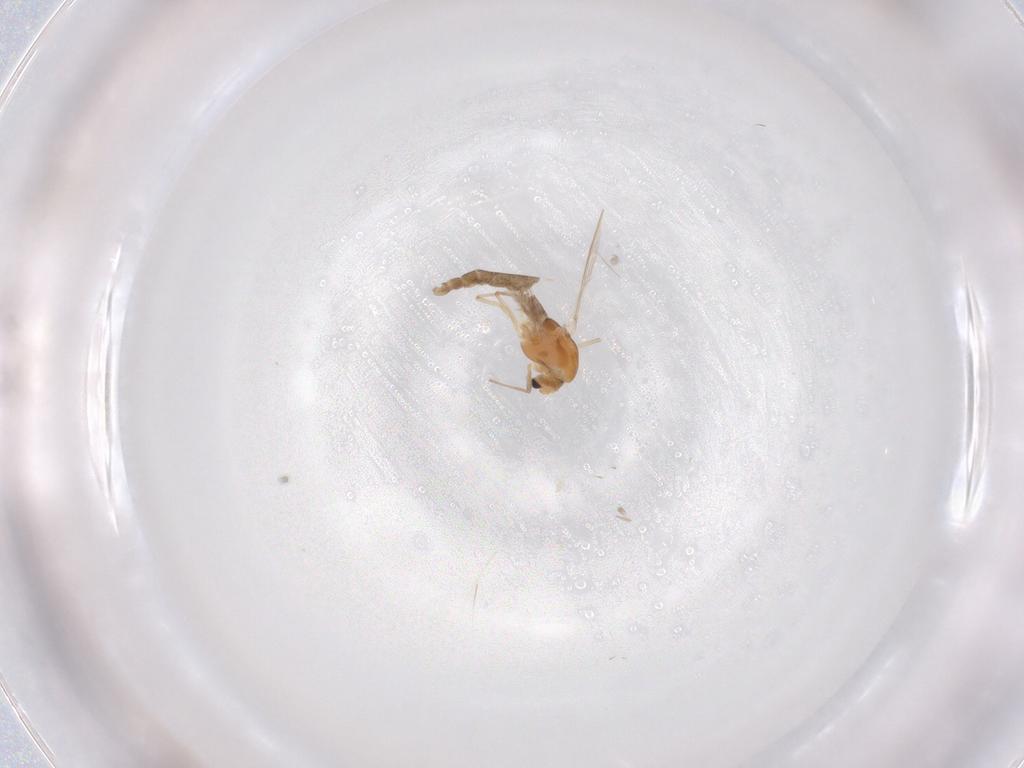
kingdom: Animalia
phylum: Arthropoda
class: Insecta
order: Diptera
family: Chironomidae
